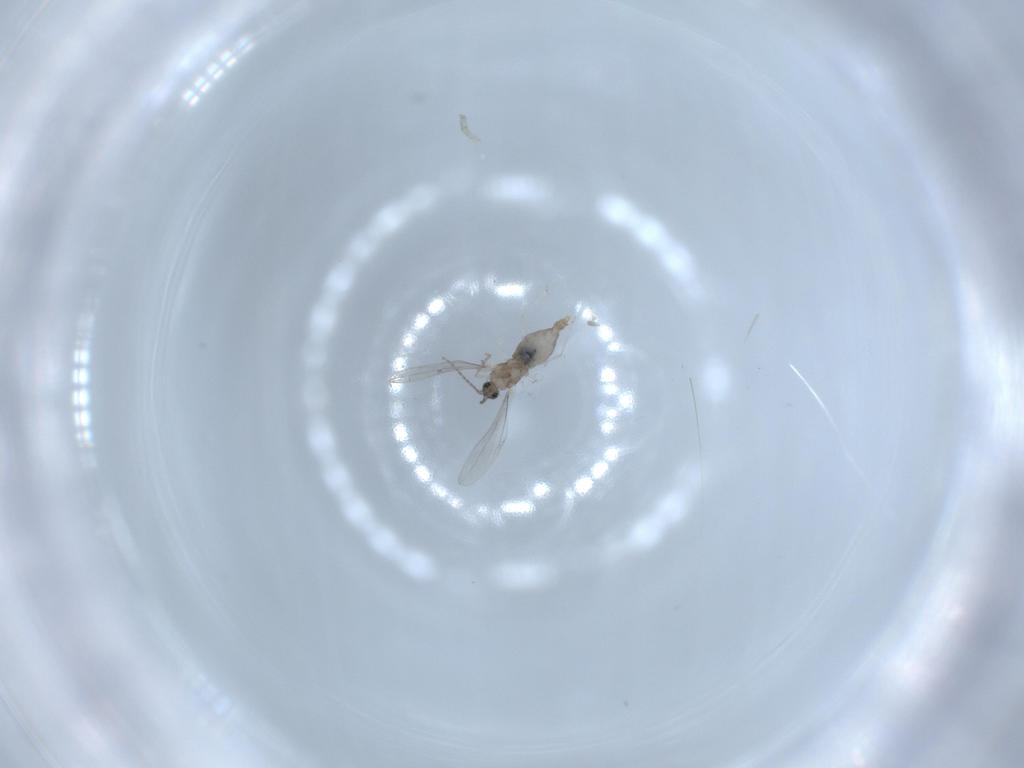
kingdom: Animalia
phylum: Arthropoda
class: Insecta
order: Diptera
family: Cecidomyiidae
